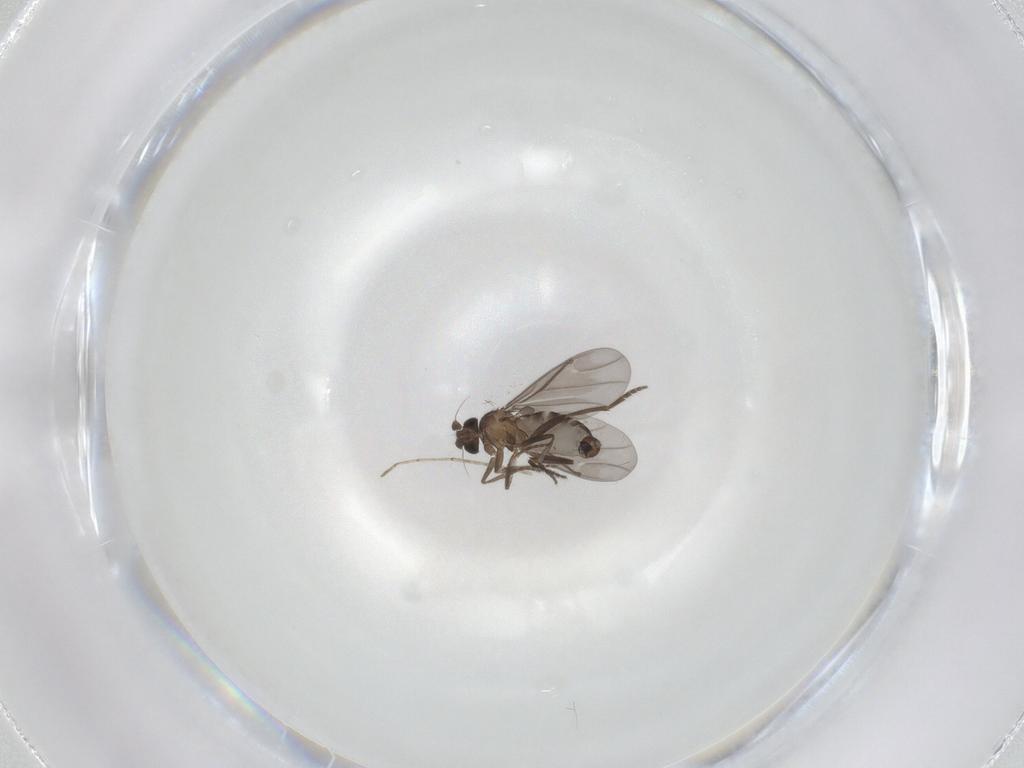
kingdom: Animalia
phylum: Arthropoda
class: Insecta
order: Diptera
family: Phoridae
